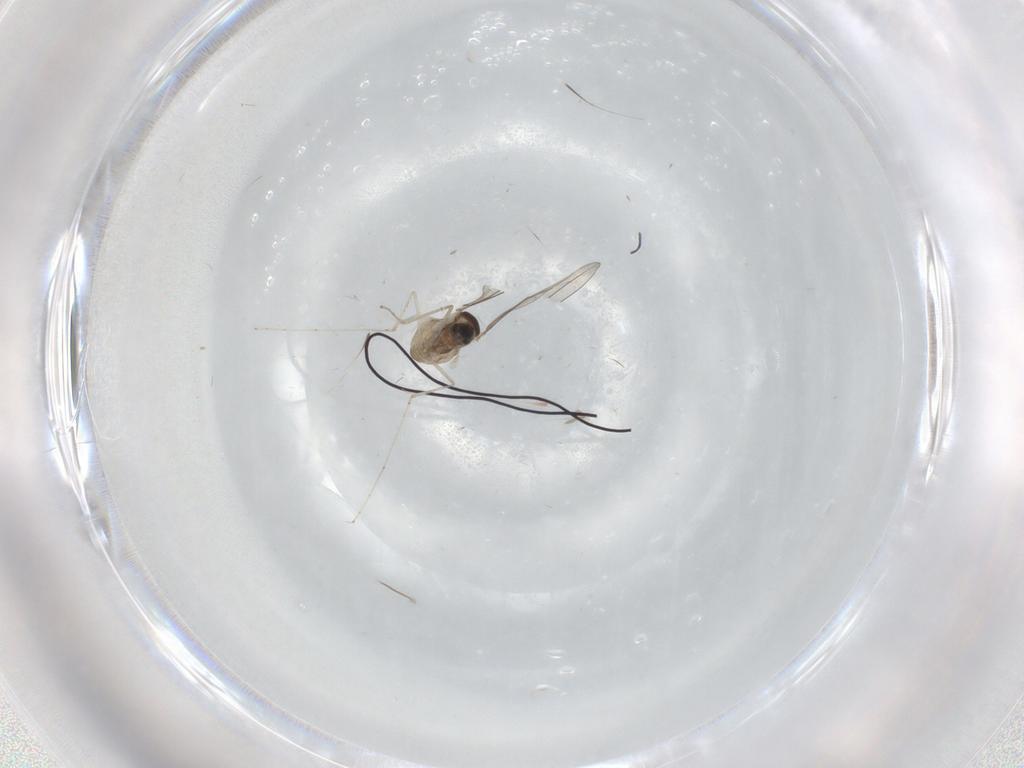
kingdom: Animalia
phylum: Arthropoda
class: Insecta
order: Diptera
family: Cecidomyiidae
